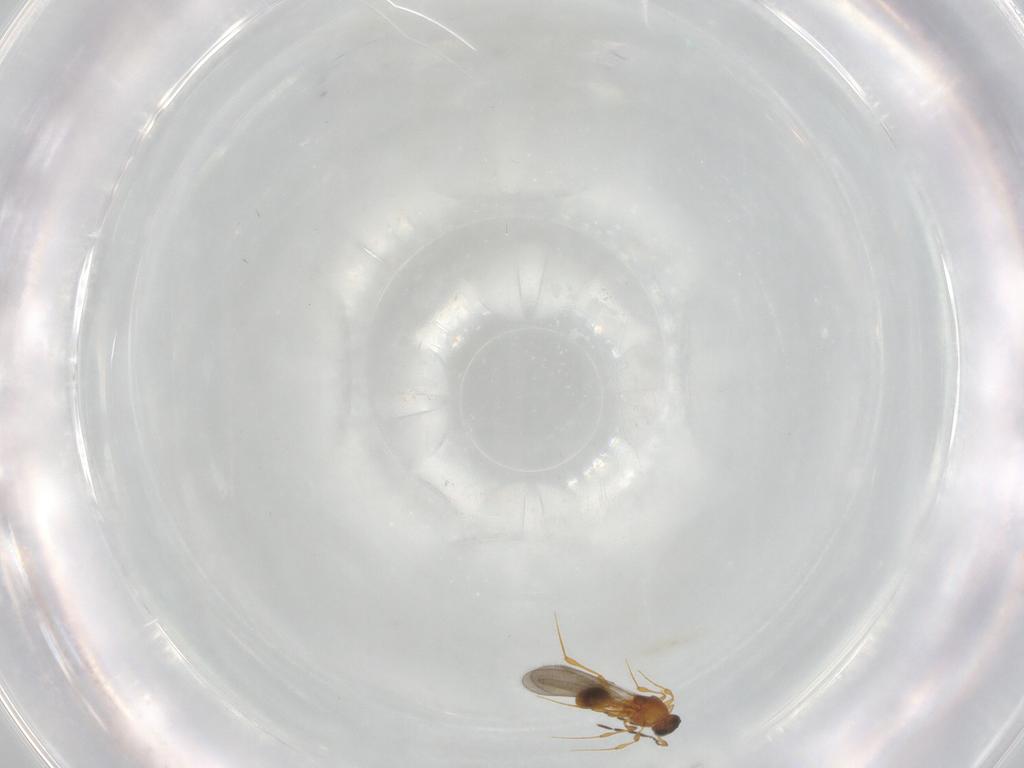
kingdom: Animalia
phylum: Arthropoda
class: Insecta
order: Hymenoptera
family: Platygastridae
